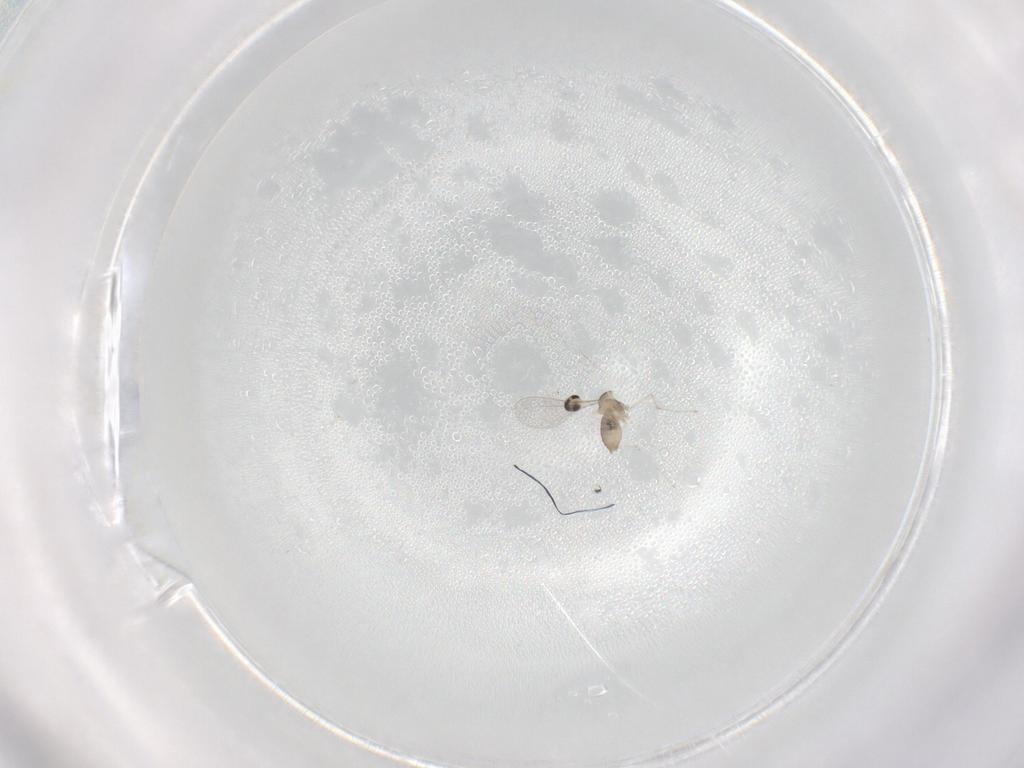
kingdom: Animalia
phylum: Arthropoda
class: Insecta
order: Diptera
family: Cecidomyiidae
